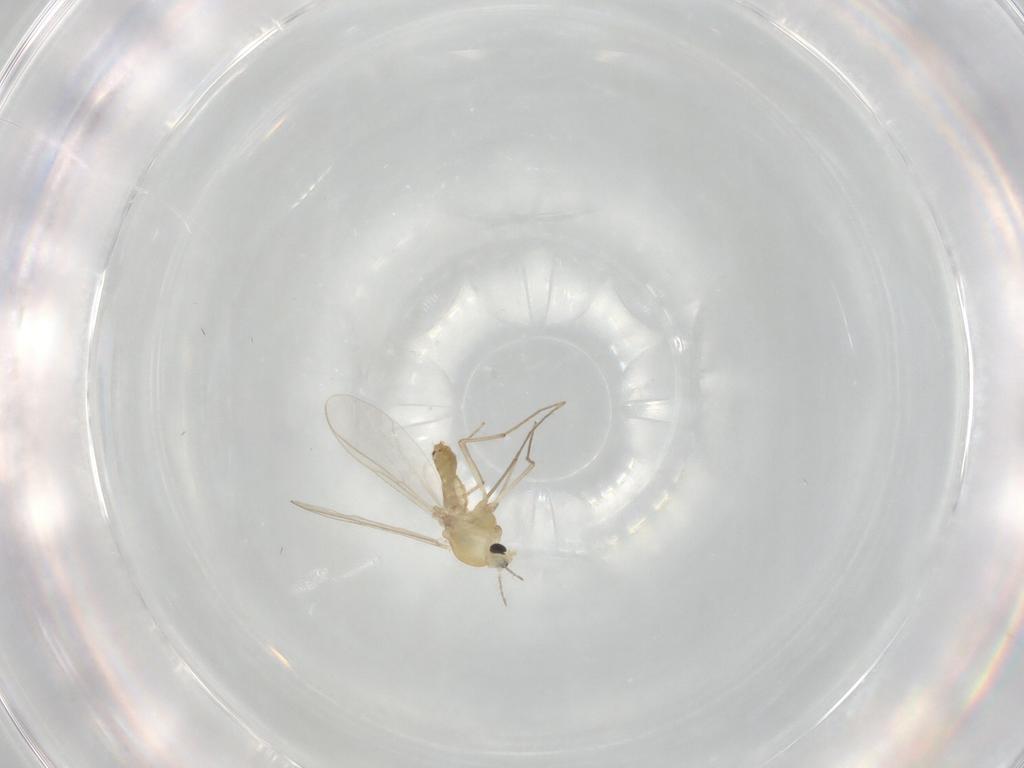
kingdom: Animalia
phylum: Arthropoda
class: Insecta
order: Diptera
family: Chironomidae
